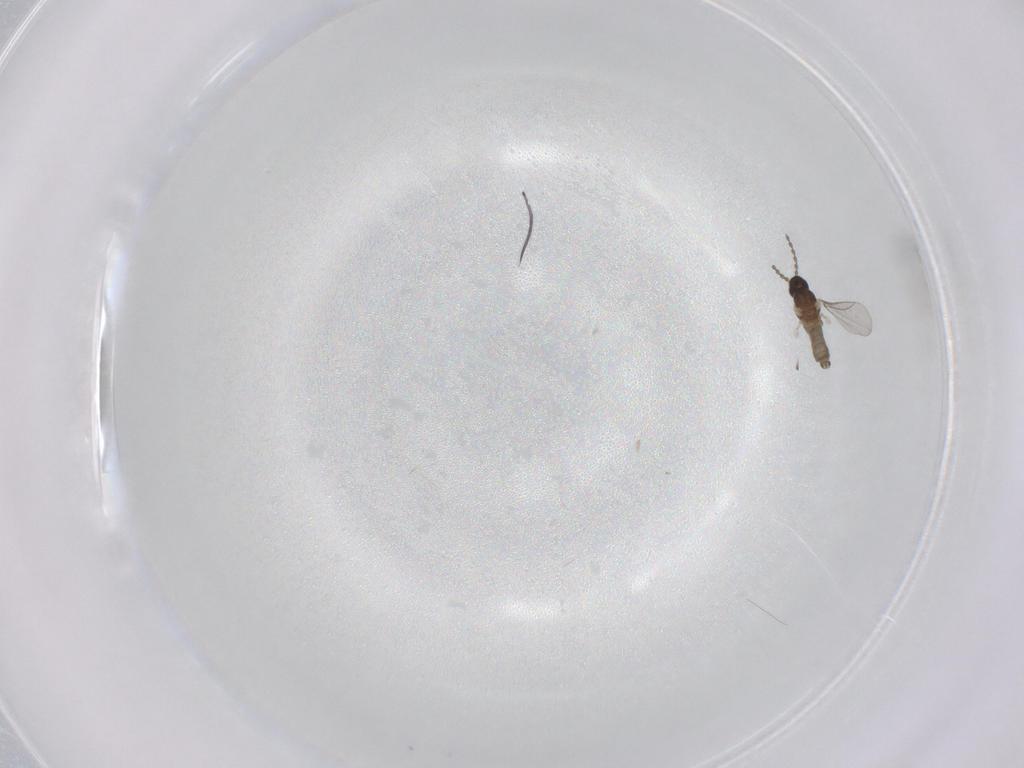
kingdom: Animalia
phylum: Arthropoda
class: Insecta
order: Diptera
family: Cecidomyiidae
